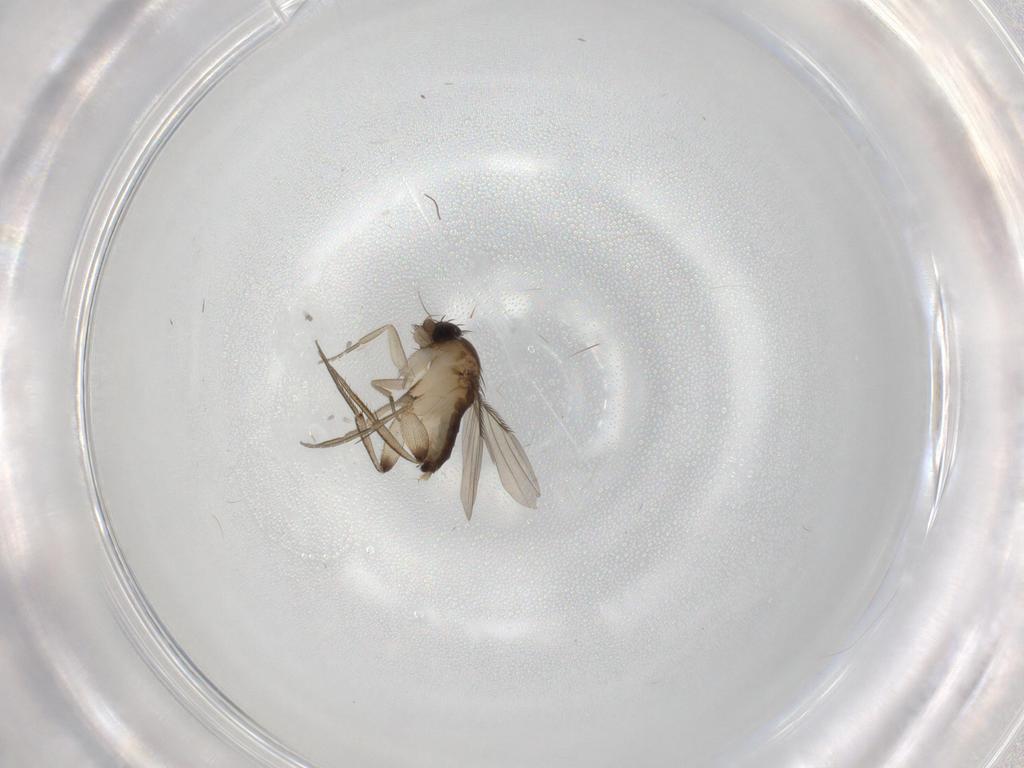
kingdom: Animalia
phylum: Arthropoda
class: Insecta
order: Diptera
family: Phoridae
